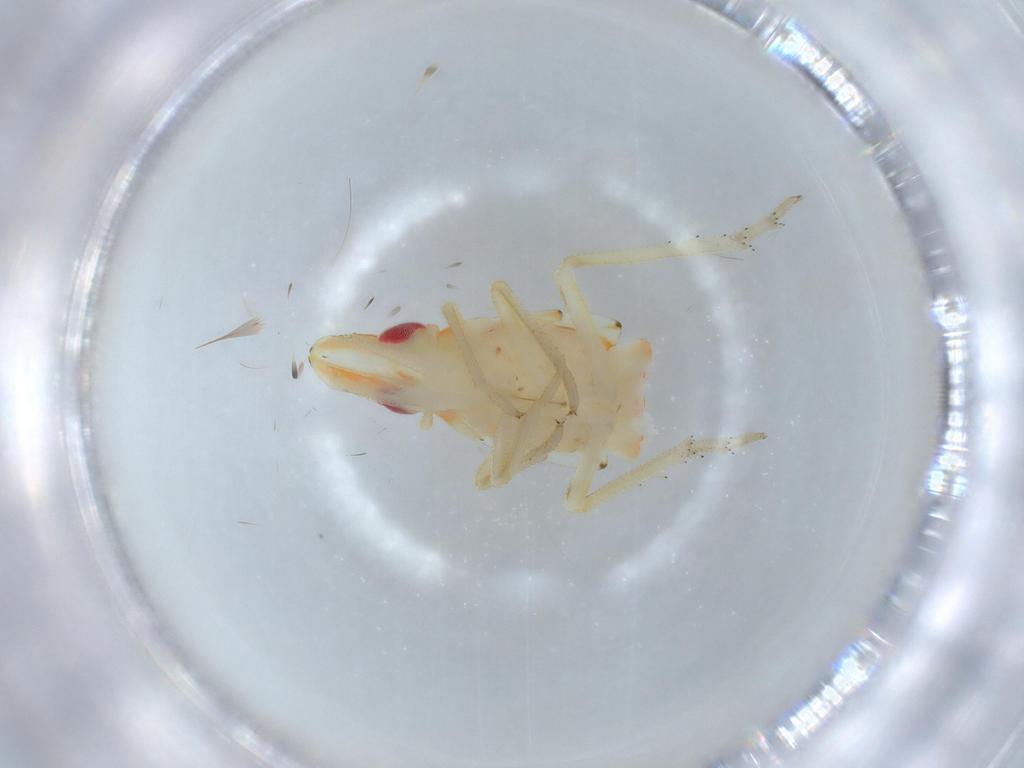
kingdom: Animalia
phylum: Arthropoda
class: Insecta
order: Hemiptera
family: Tropiduchidae
